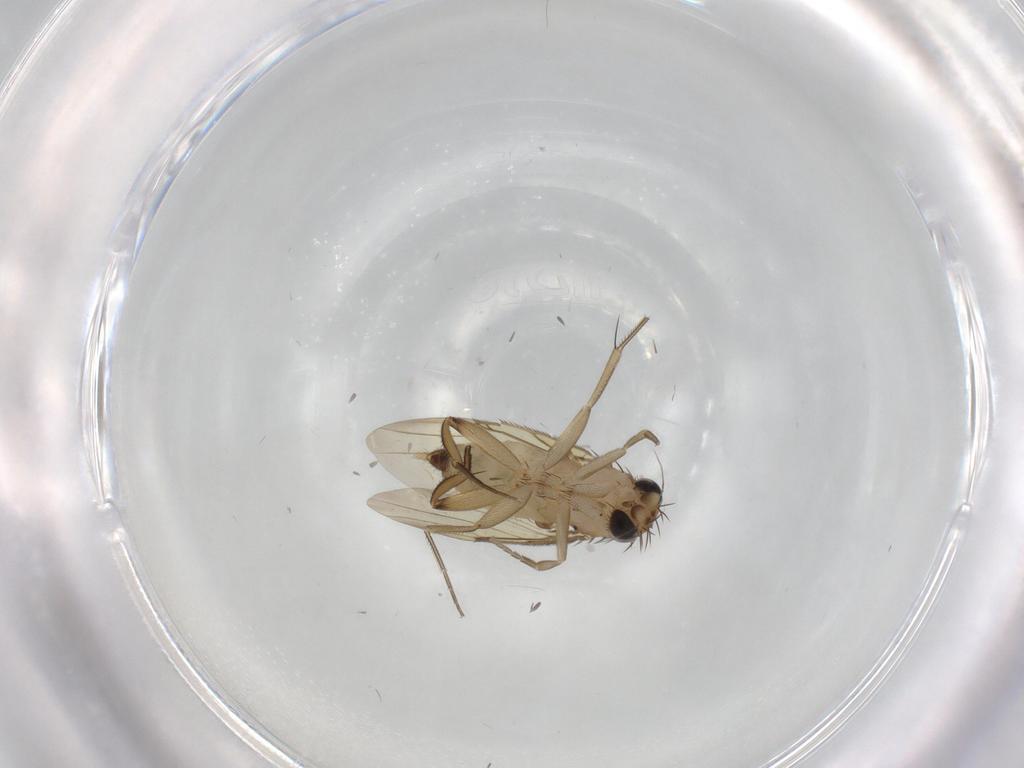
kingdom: Animalia
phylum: Arthropoda
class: Insecta
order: Diptera
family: Phoridae
